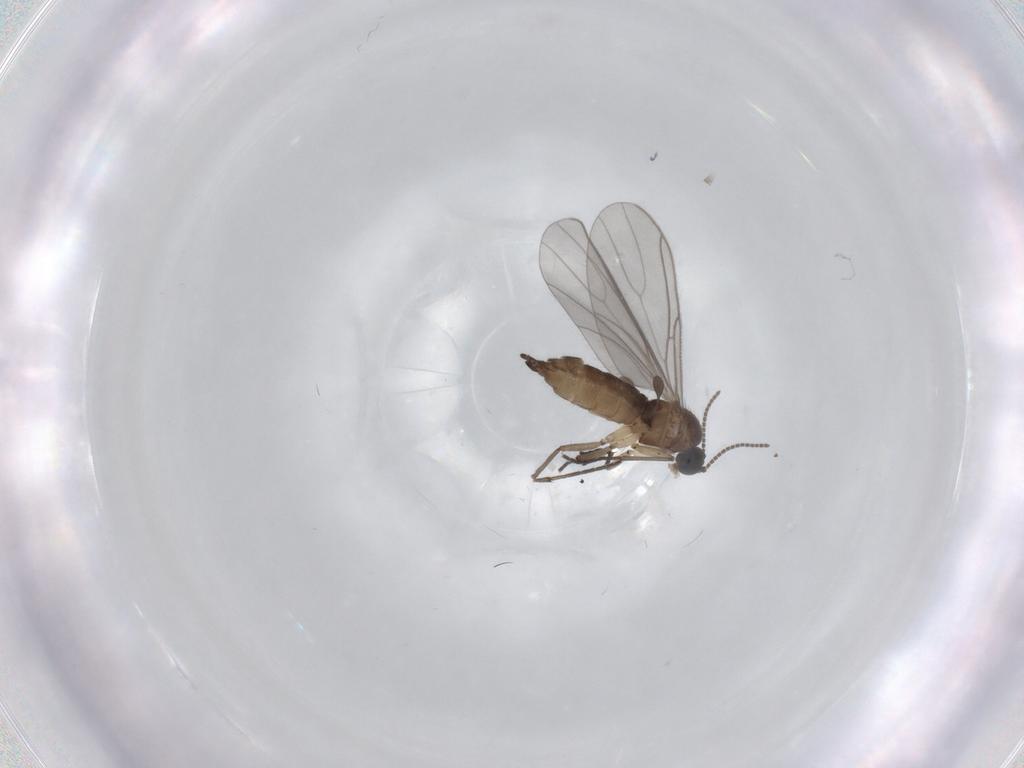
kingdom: Animalia
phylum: Arthropoda
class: Insecta
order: Diptera
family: Sciaridae
